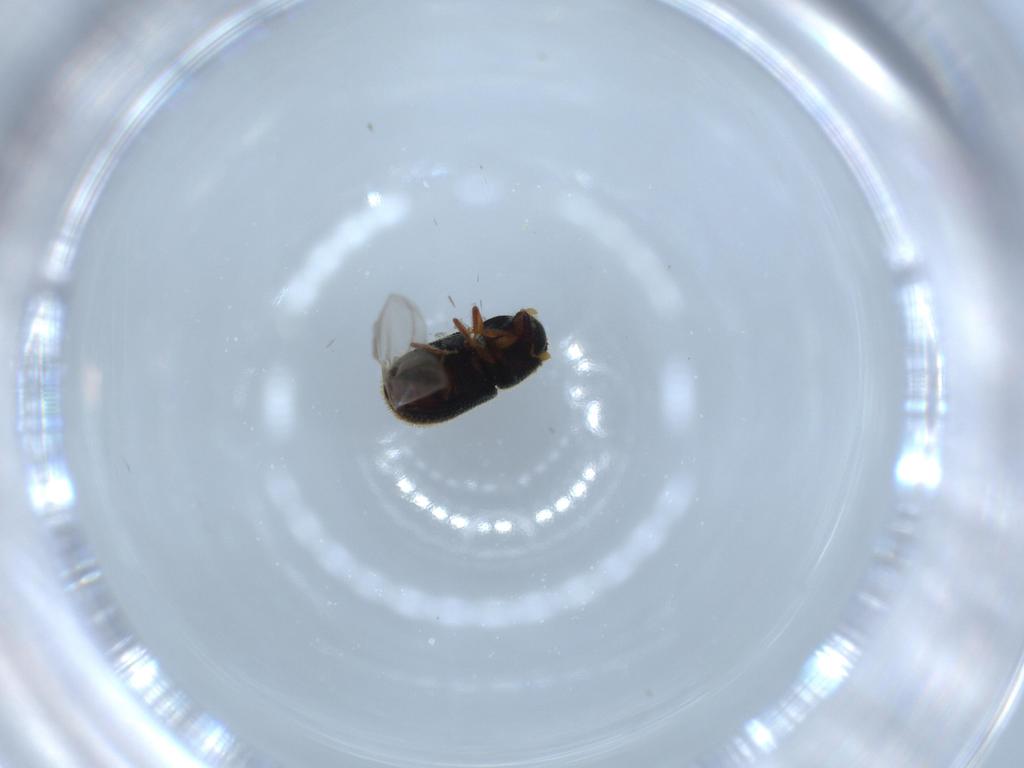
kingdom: Animalia
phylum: Arthropoda
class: Insecta
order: Coleoptera
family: Curculionidae
